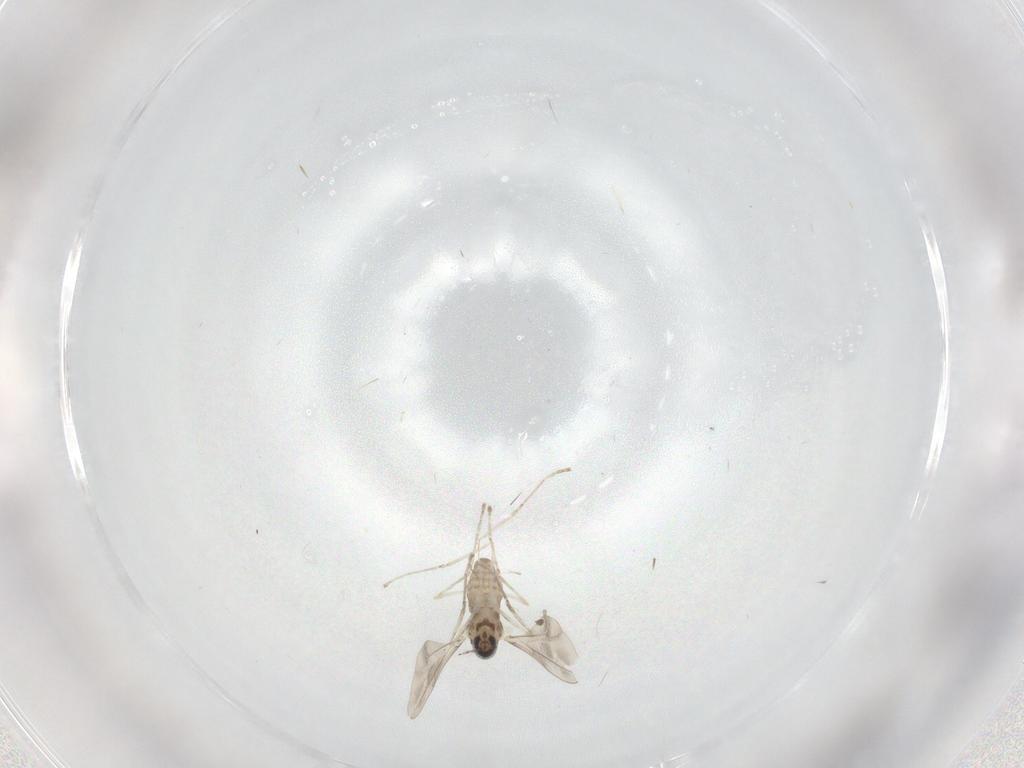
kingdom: Animalia
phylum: Arthropoda
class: Insecta
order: Diptera
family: Cecidomyiidae
